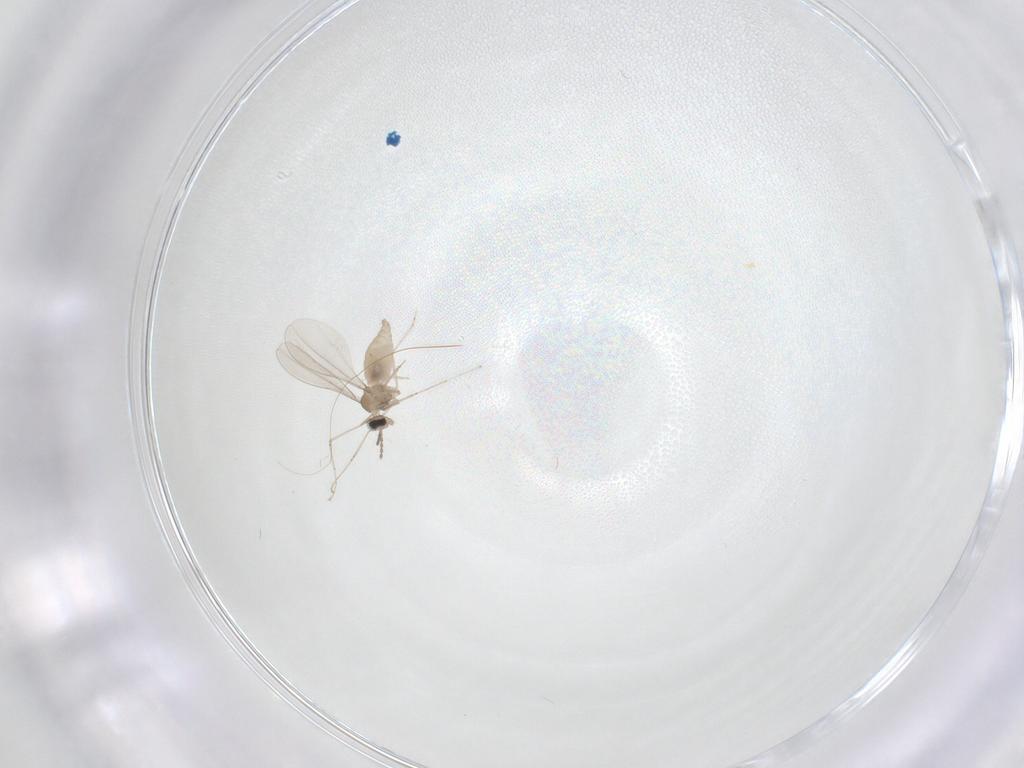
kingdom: Animalia
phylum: Arthropoda
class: Insecta
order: Diptera
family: Cecidomyiidae
